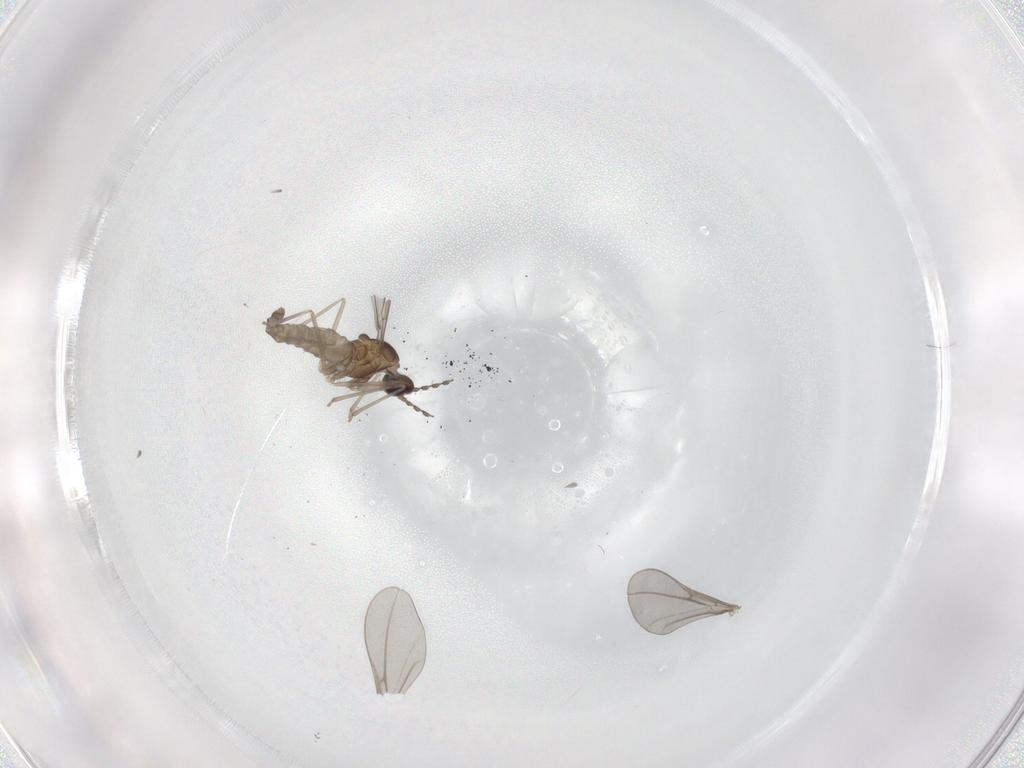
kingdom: Animalia
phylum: Arthropoda
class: Insecta
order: Diptera
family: Cecidomyiidae
